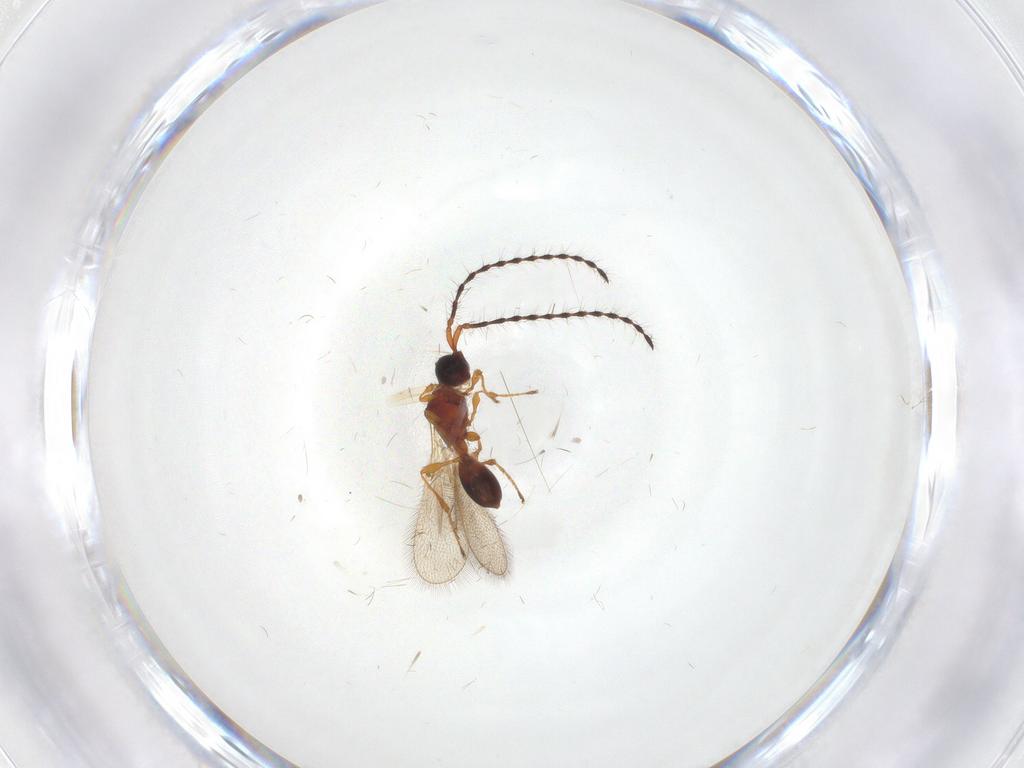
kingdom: Animalia
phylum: Arthropoda
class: Insecta
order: Hymenoptera
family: Diapriidae
